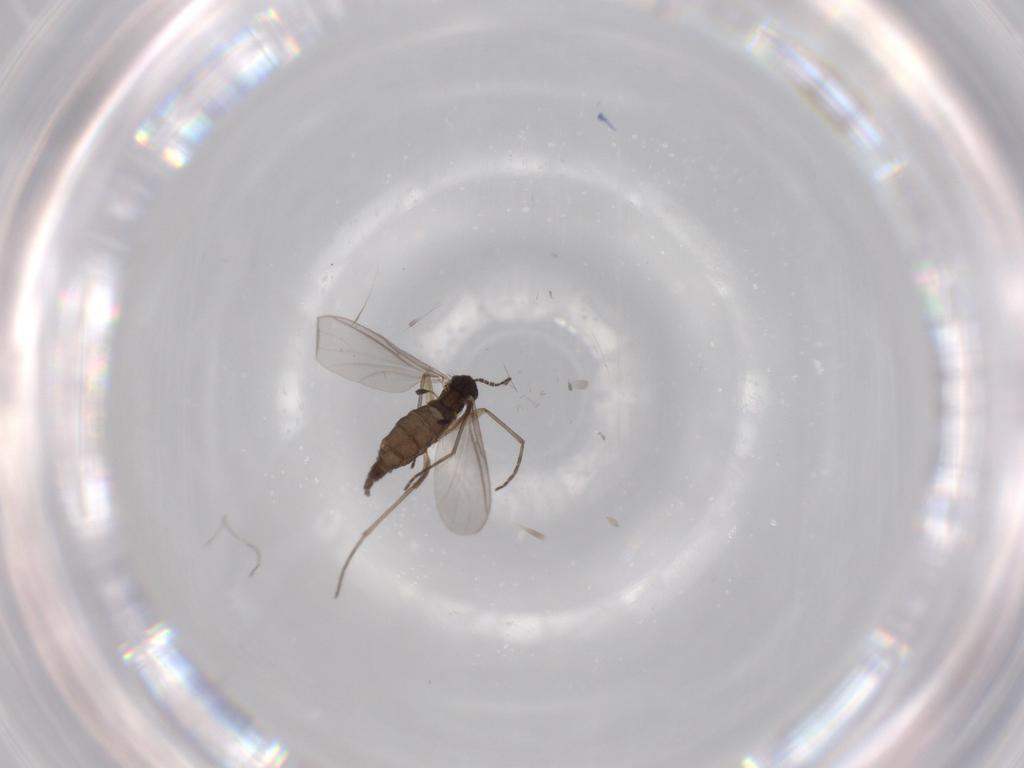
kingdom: Animalia
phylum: Arthropoda
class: Insecta
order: Diptera
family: Sciaridae
